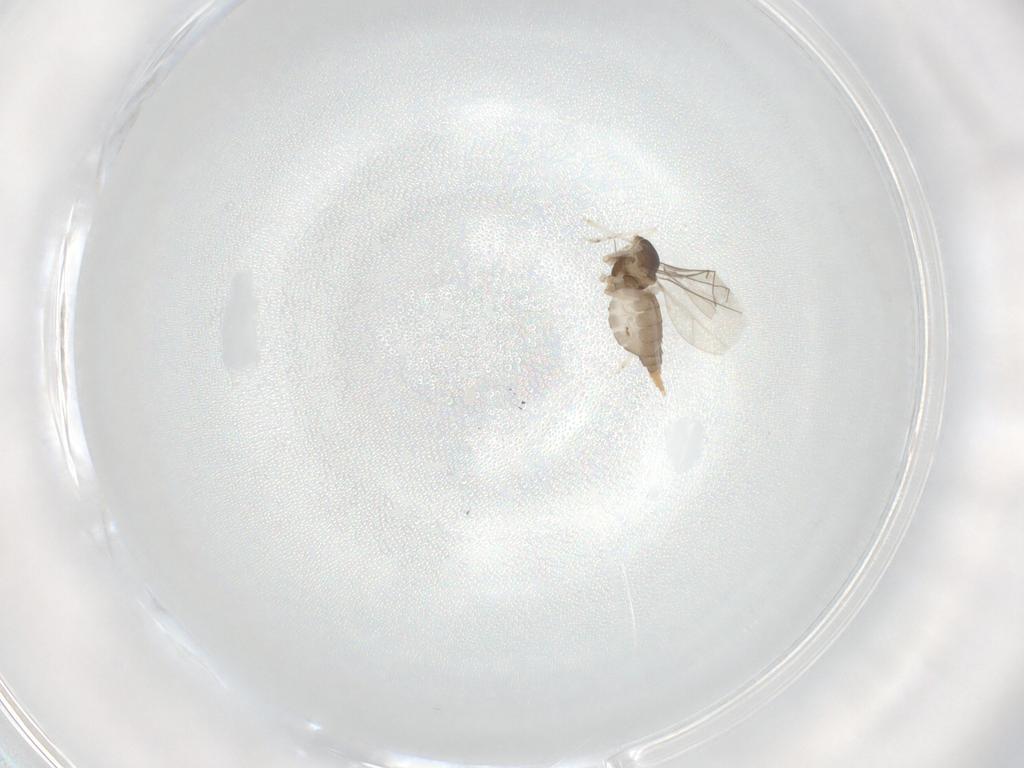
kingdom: Animalia
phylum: Arthropoda
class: Insecta
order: Diptera
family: Cecidomyiidae
